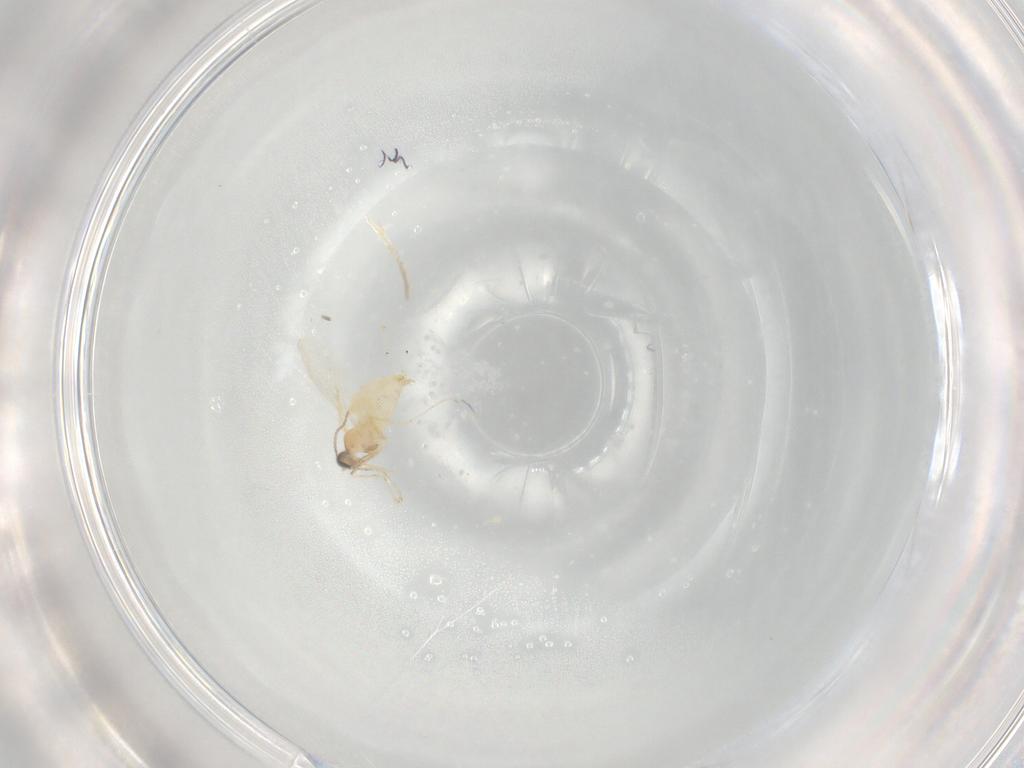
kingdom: Animalia
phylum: Arthropoda
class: Insecta
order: Diptera
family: Cecidomyiidae
